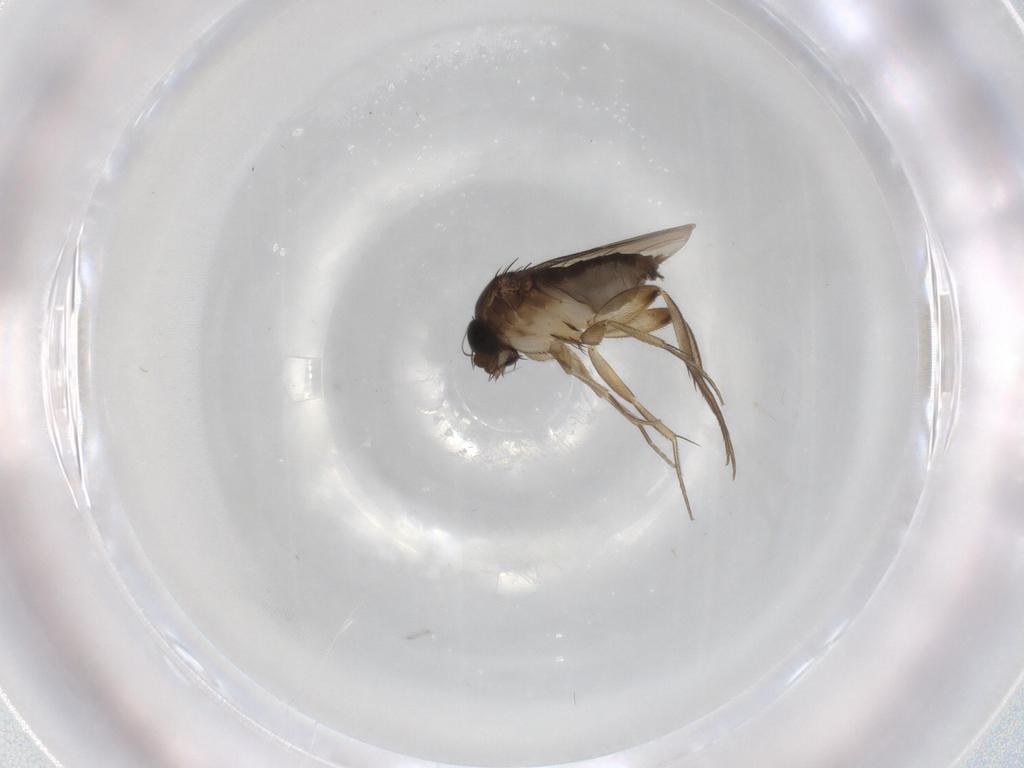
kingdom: Animalia
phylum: Arthropoda
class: Insecta
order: Diptera
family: Phoridae
